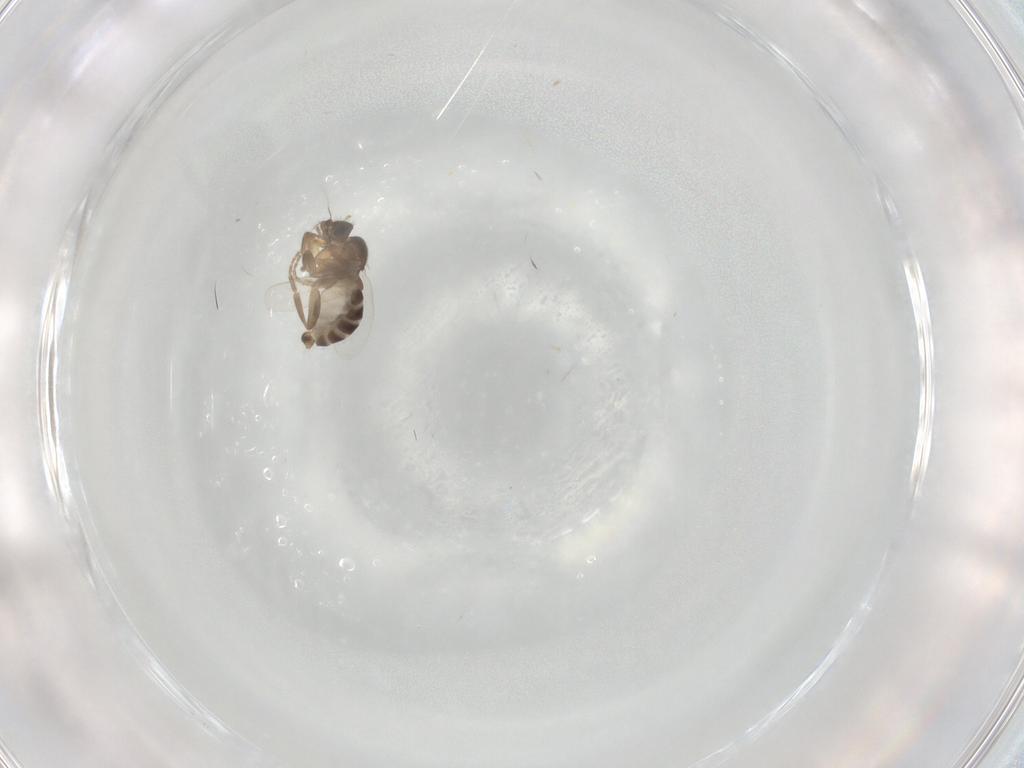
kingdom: Animalia
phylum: Arthropoda
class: Insecta
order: Diptera
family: Phoridae
